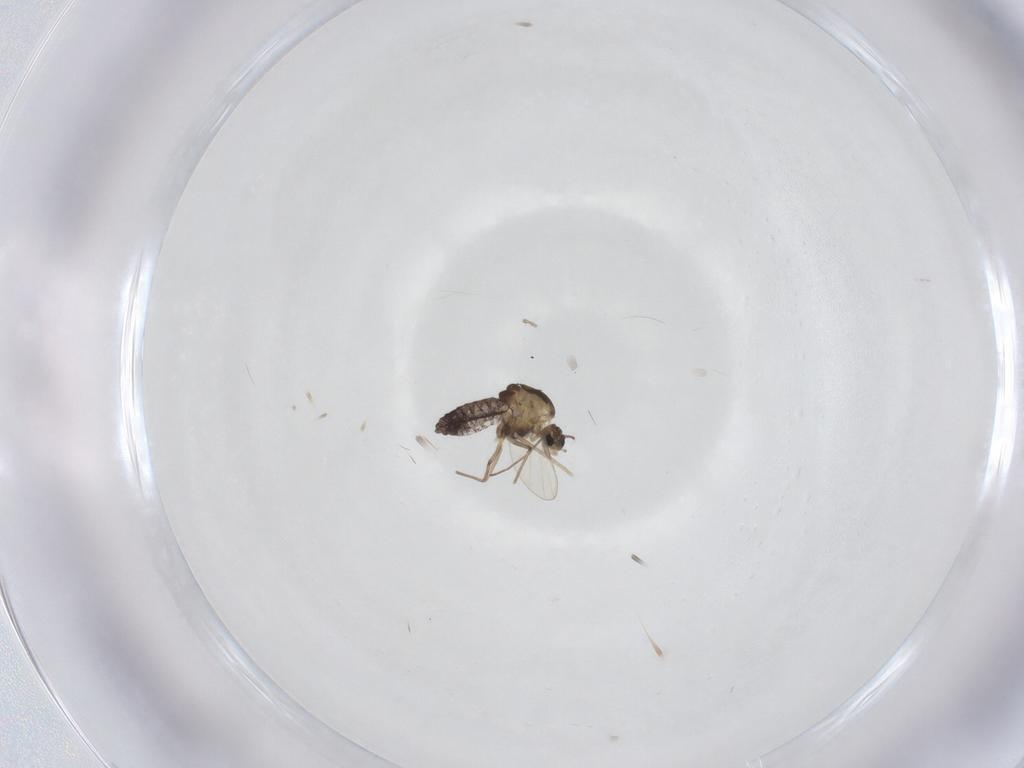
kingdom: Animalia
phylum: Arthropoda
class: Insecta
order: Diptera
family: Chironomidae
